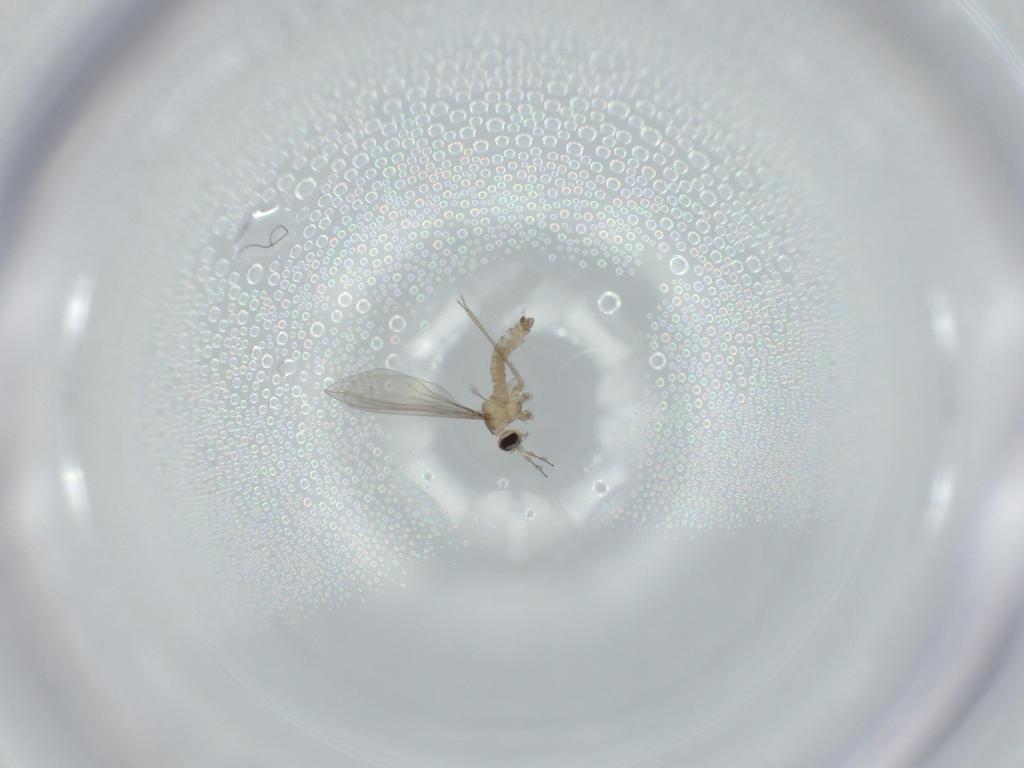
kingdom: Animalia
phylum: Arthropoda
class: Insecta
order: Diptera
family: Cecidomyiidae
